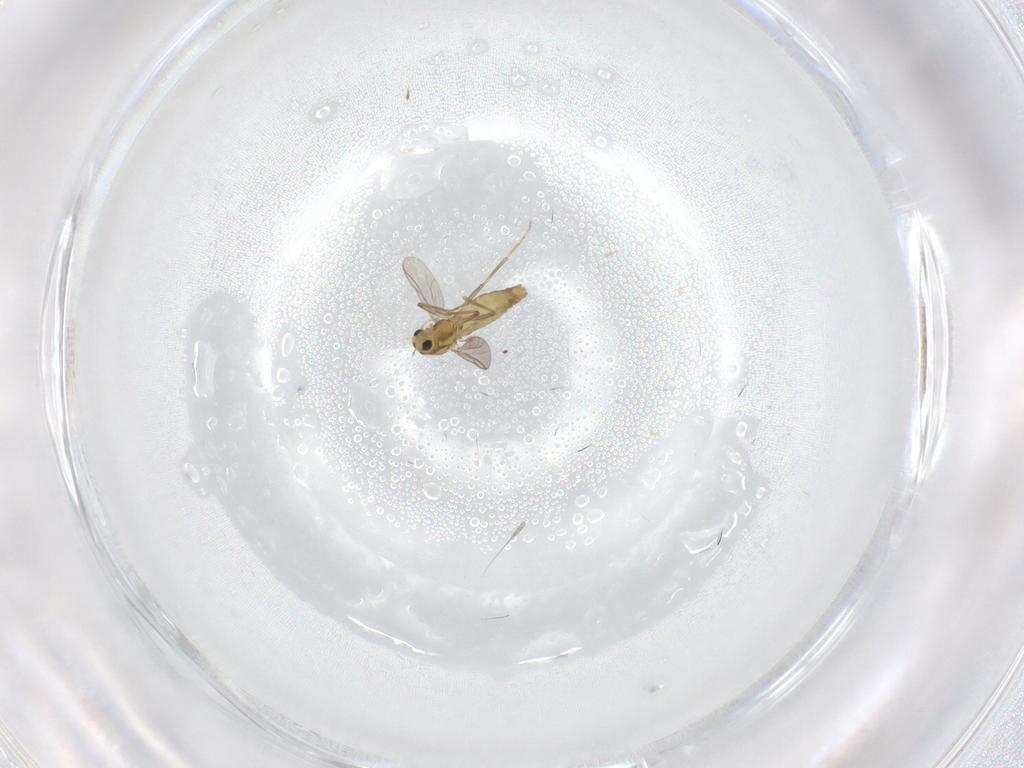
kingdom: Animalia
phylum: Arthropoda
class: Insecta
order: Diptera
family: Chironomidae
